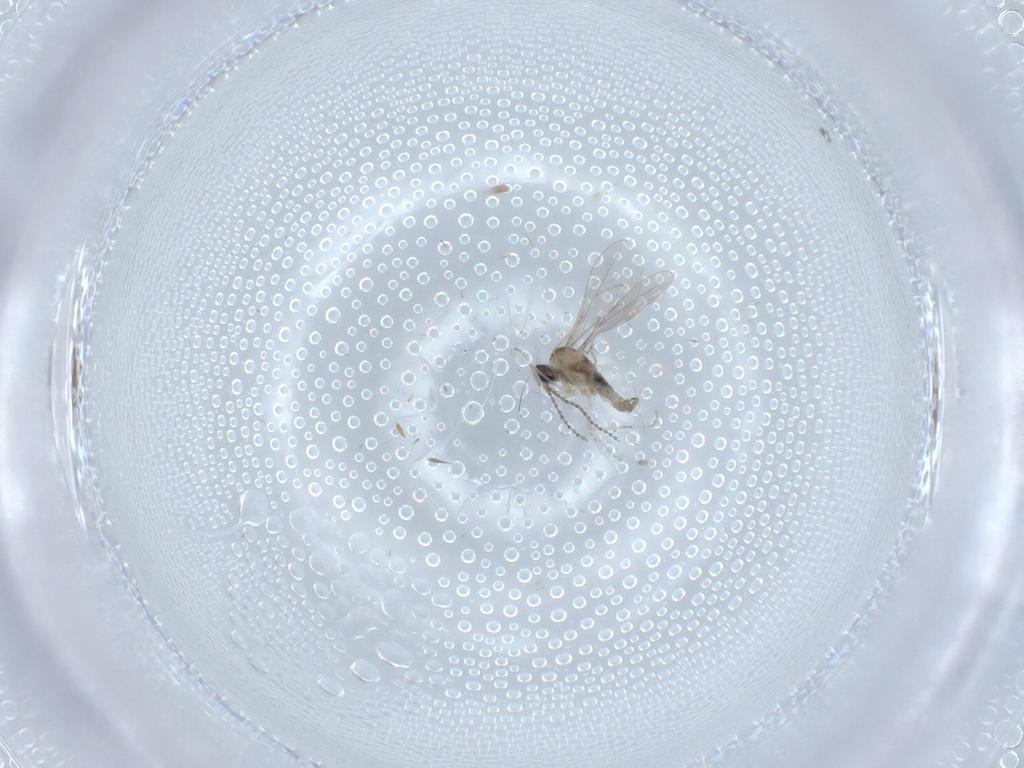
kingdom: Animalia
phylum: Arthropoda
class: Insecta
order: Diptera
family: Cecidomyiidae
